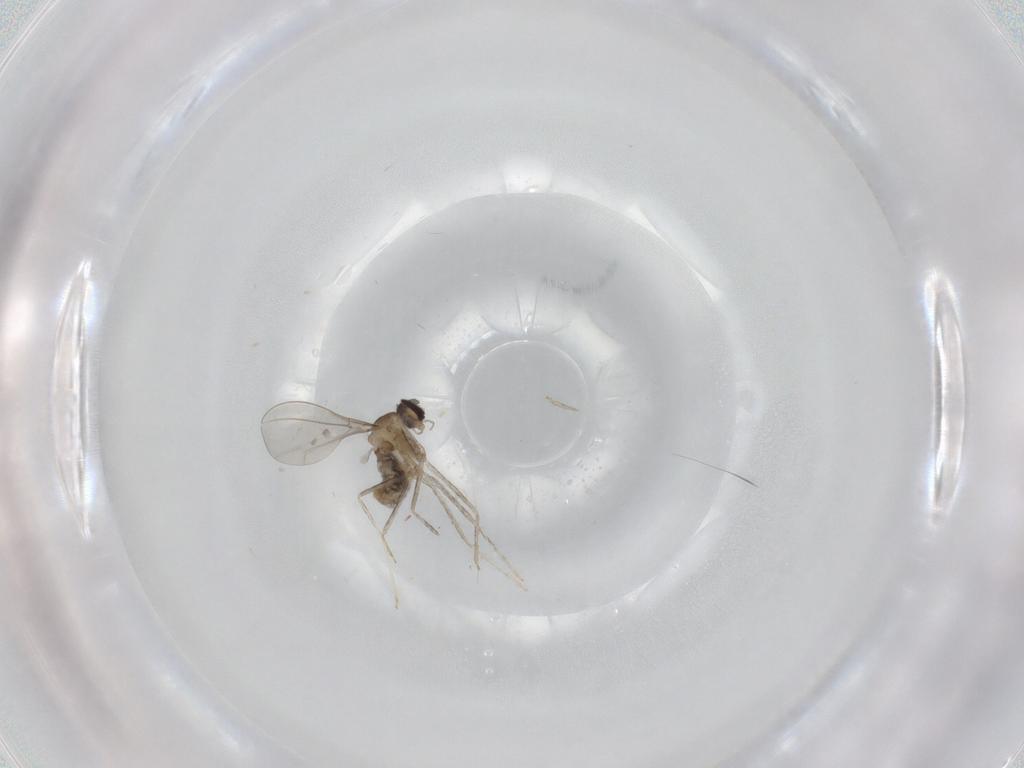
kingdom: Animalia
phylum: Arthropoda
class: Insecta
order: Diptera
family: Cecidomyiidae
